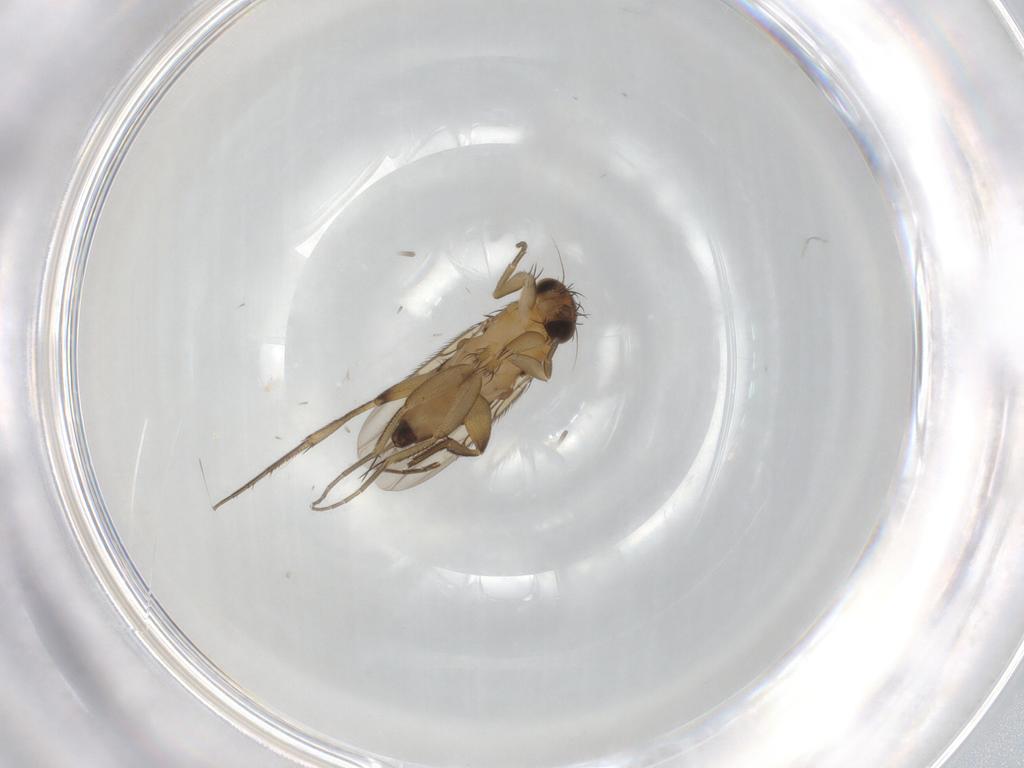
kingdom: Animalia
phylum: Arthropoda
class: Insecta
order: Diptera
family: Phoridae
